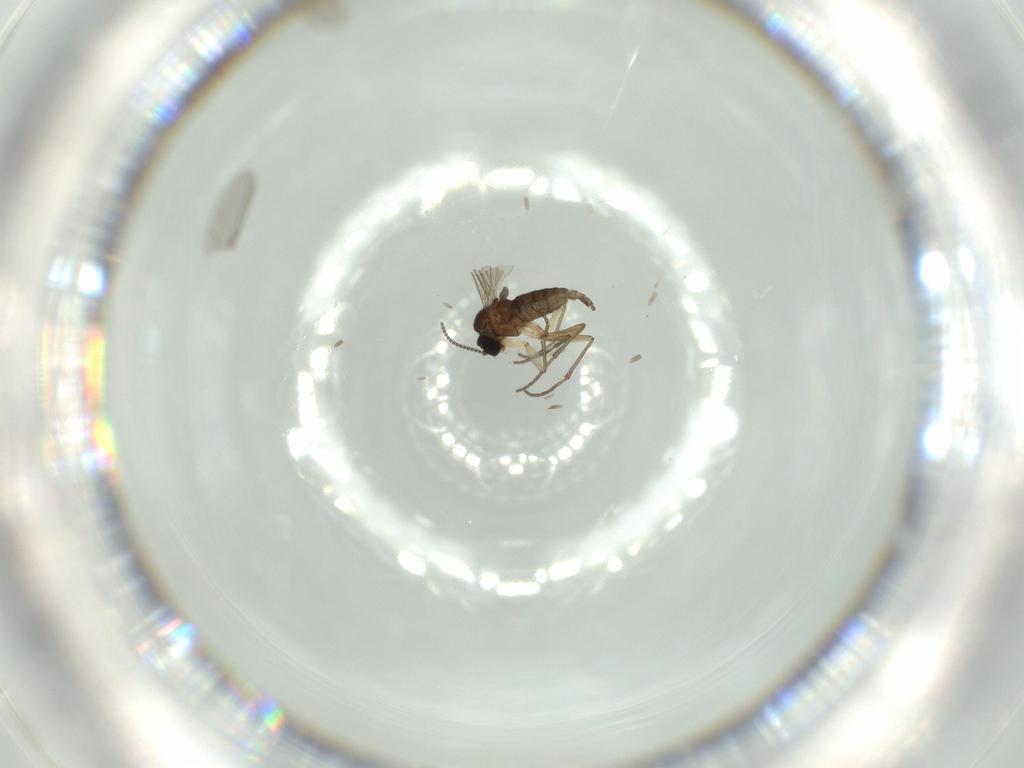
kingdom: Animalia
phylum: Arthropoda
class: Insecta
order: Diptera
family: Sciaridae
